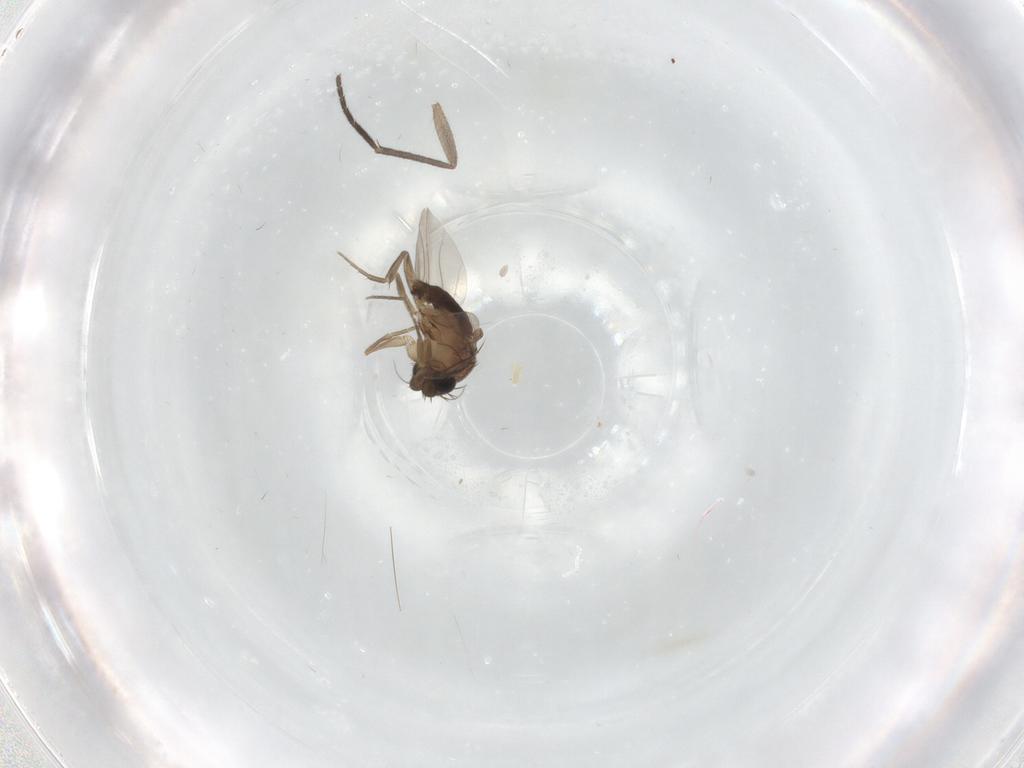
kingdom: Animalia
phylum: Arthropoda
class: Insecta
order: Diptera
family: Phoridae
